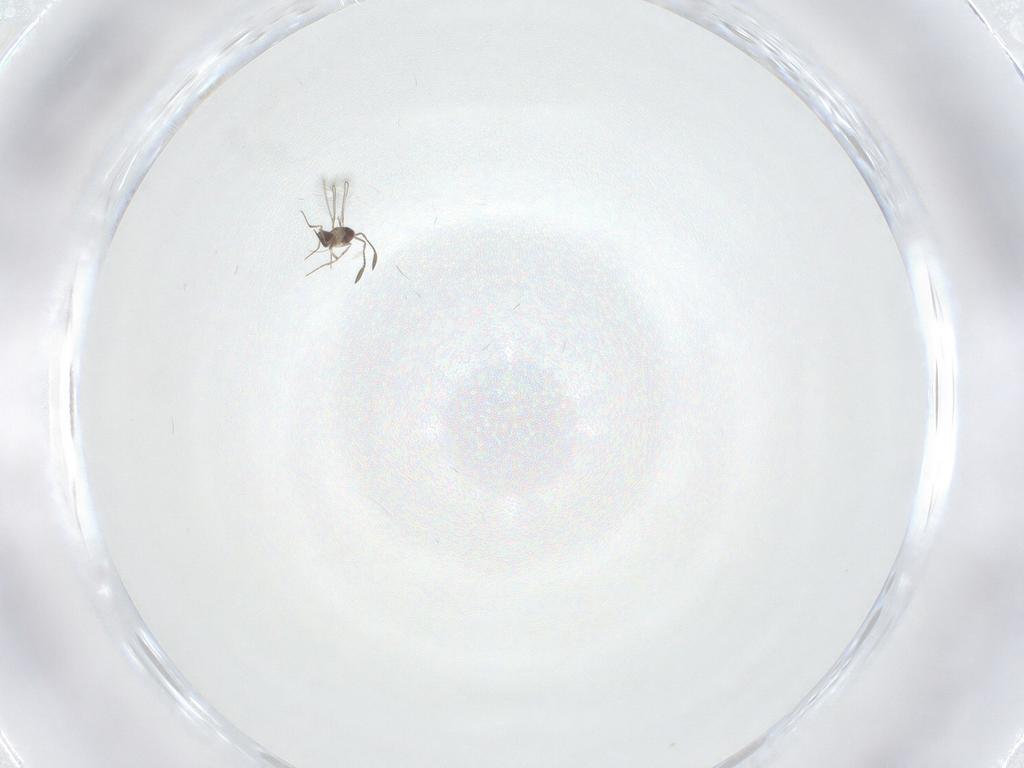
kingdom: Animalia
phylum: Arthropoda
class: Insecta
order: Hymenoptera
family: Mymaridae
